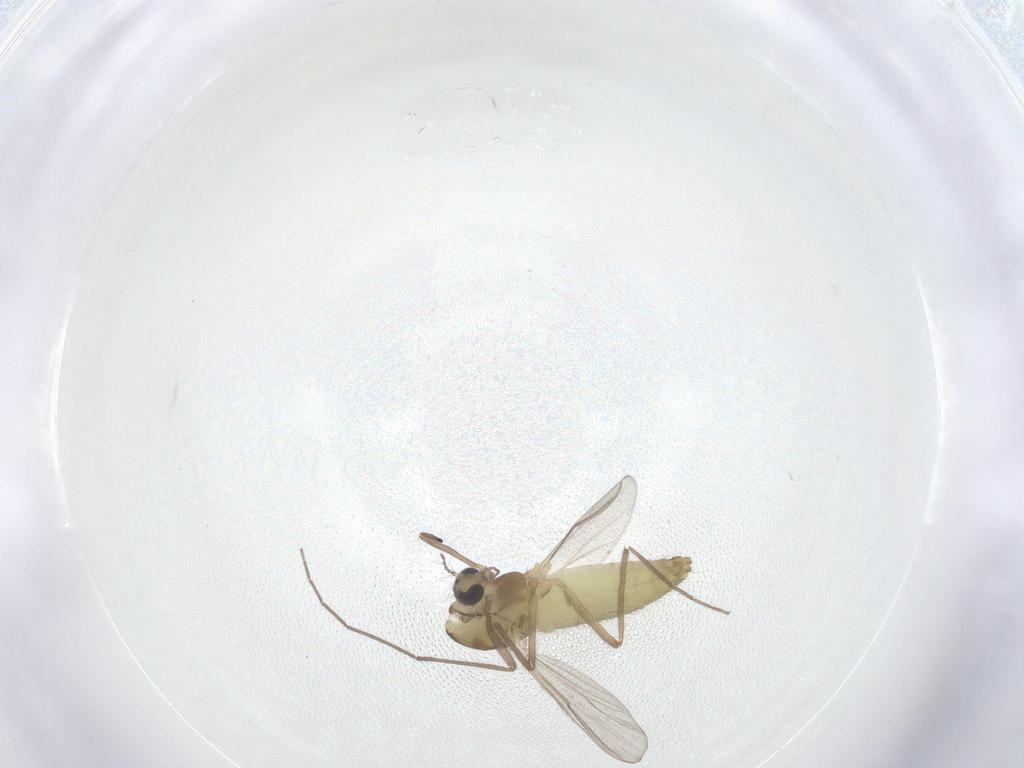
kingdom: Animalia
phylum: Arthropoda
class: Insecta
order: Diptera
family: Chironomidae
